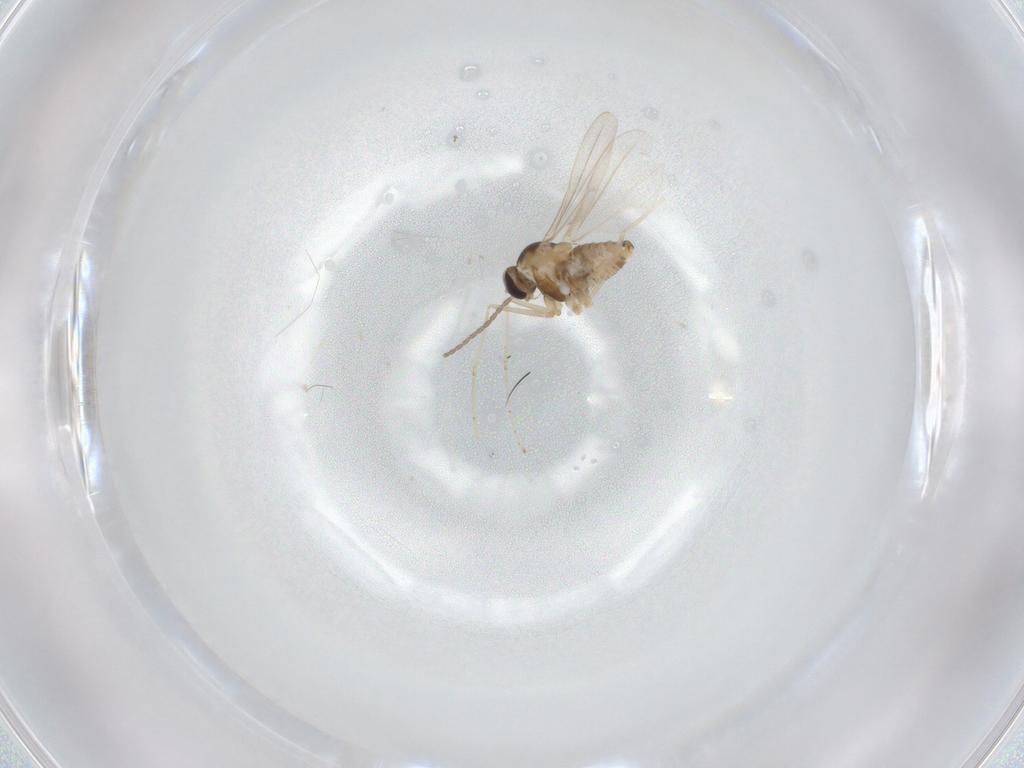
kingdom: Animalia
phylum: Arthropoda
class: Insecta
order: Diptera
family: Cecidomyiidae
